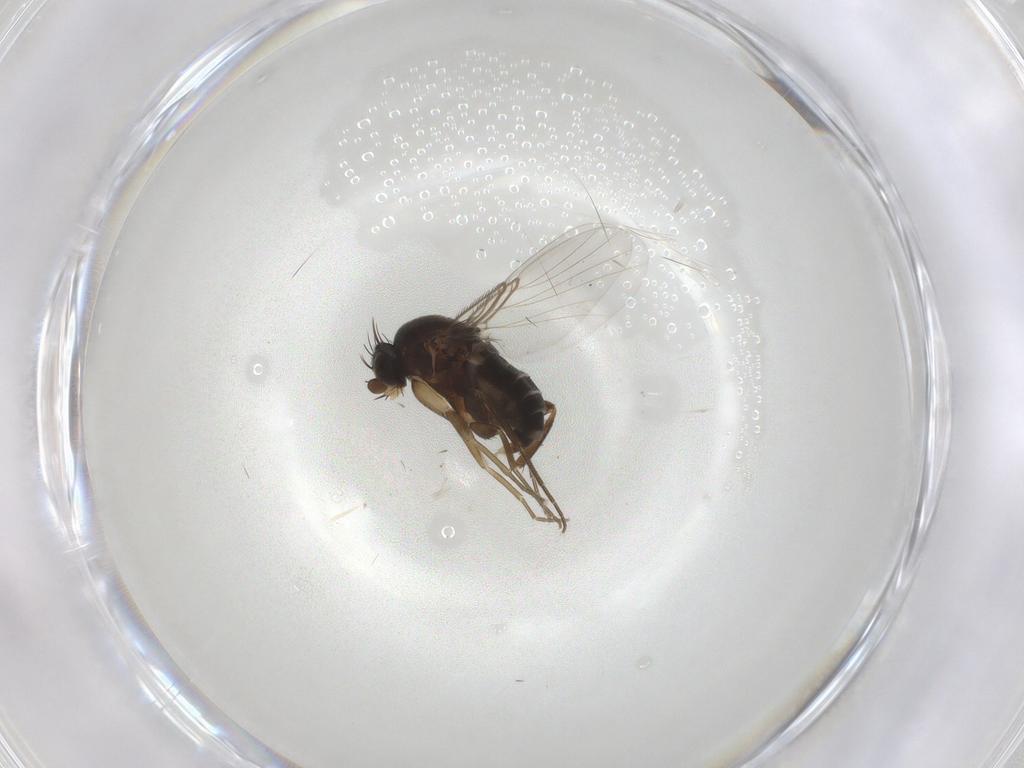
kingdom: Animalia
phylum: Arthropoda
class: Insecta
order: Diptera
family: Phoridae
